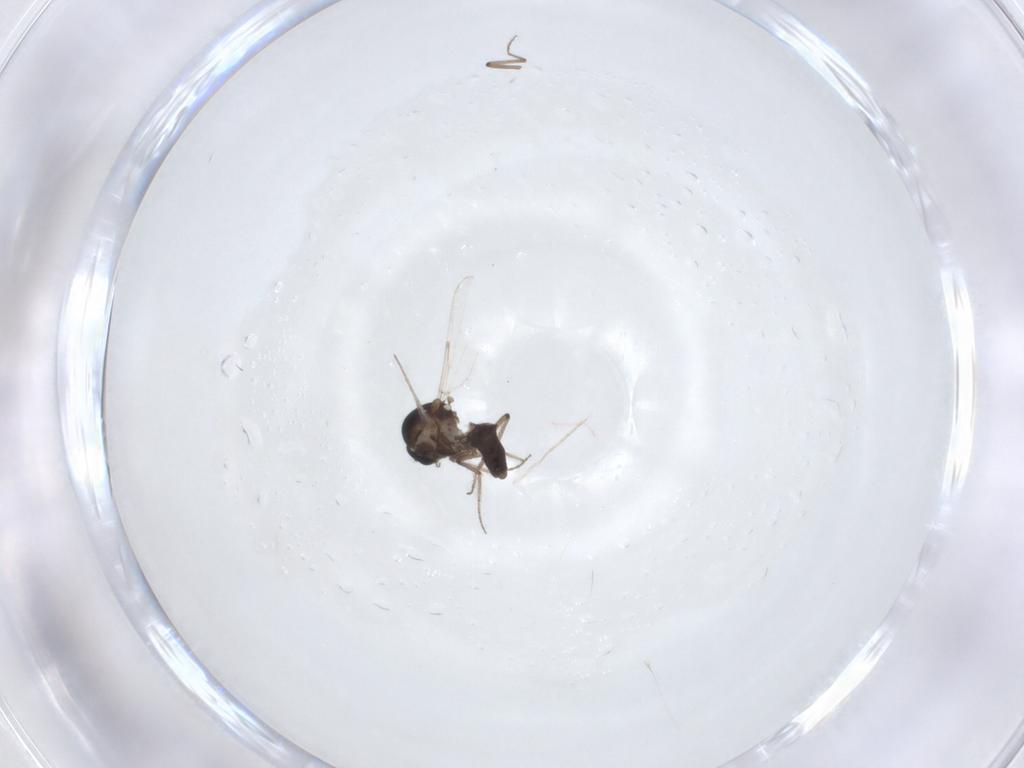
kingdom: Animalia
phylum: Arthropoda
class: Insecta
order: Diptera
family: Ceratopogonidae
